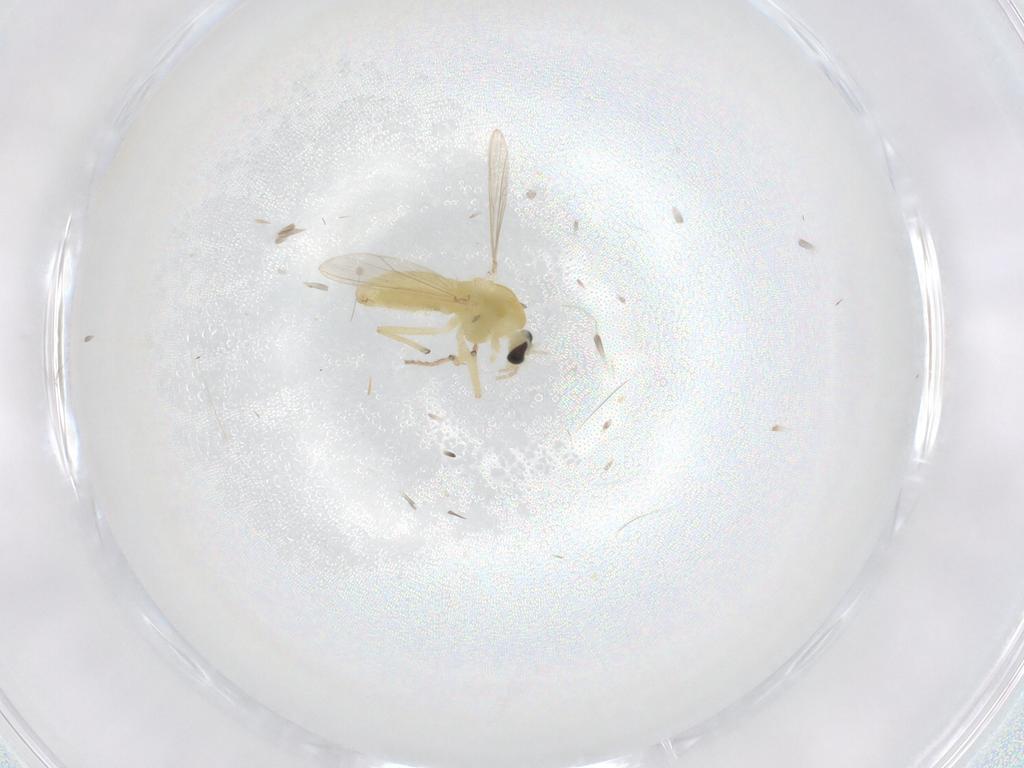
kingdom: Animalia
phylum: Arthropoda
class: Insecta
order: Diptera
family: Chironomidae
